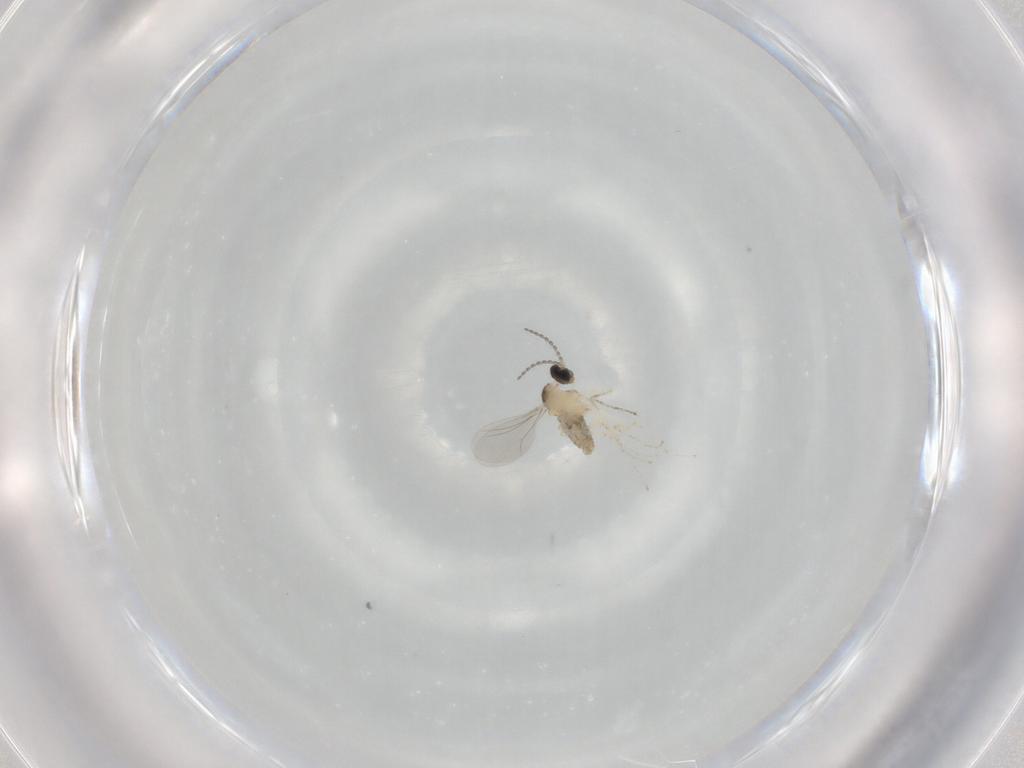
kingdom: Animalia
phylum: Arthropoda
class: Insecta
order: Diptera
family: Cecidomyiidae
